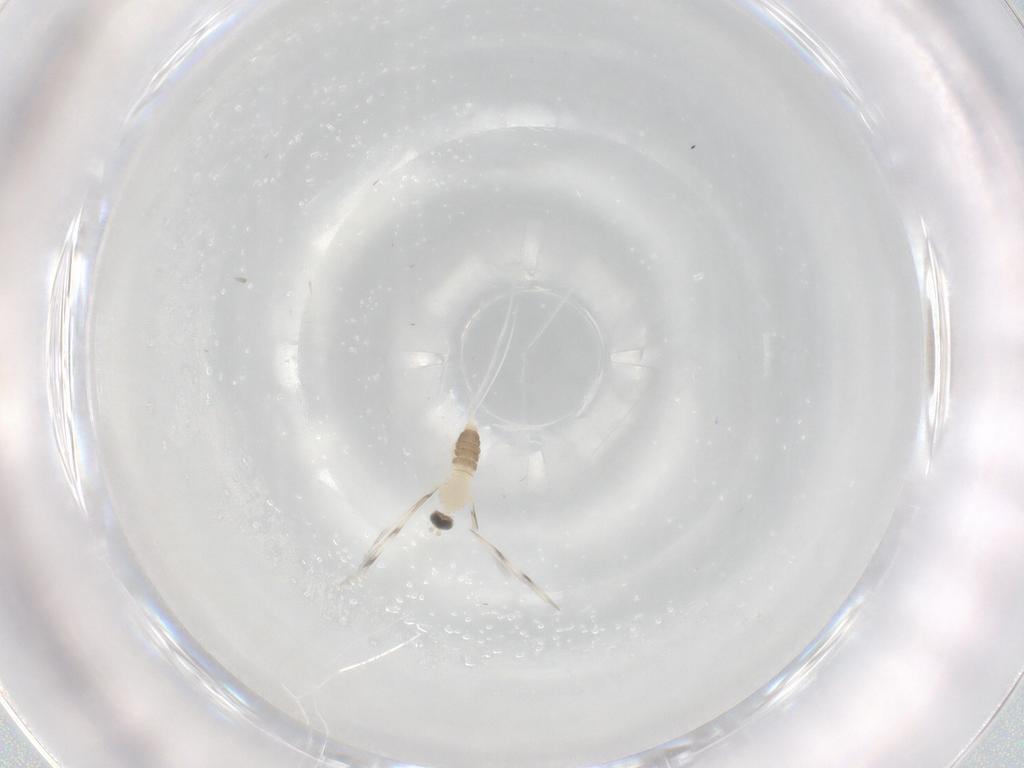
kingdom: Animalia
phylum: Arthropoda
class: Insecta
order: Diptera
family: Cecidomyiidae
